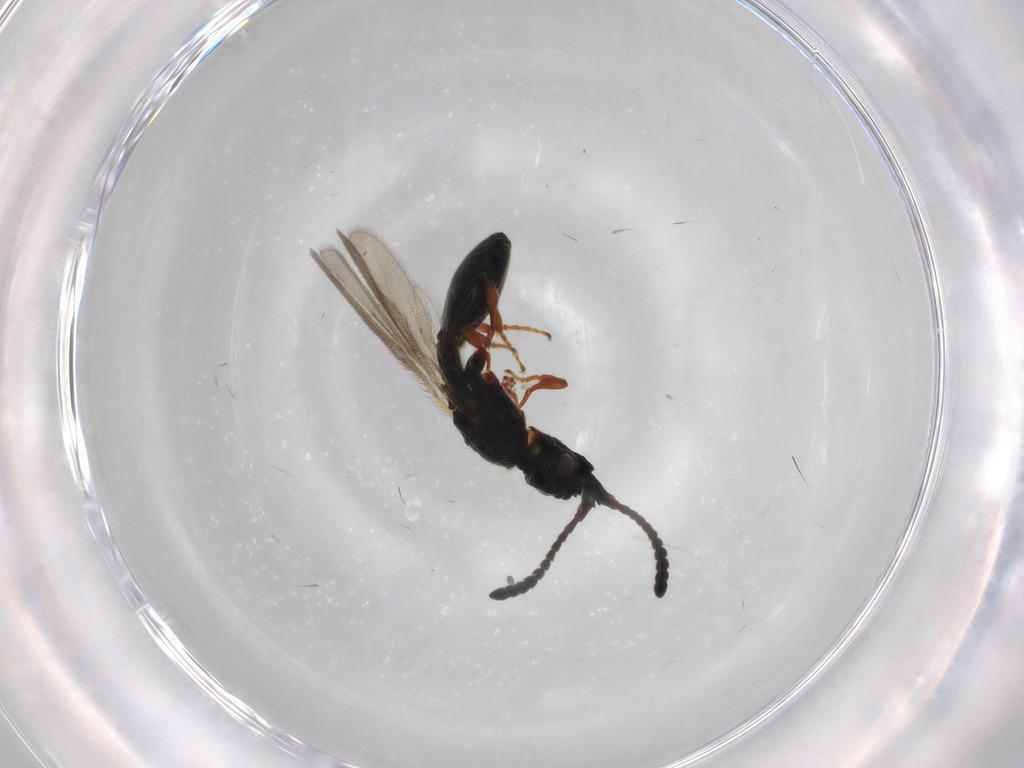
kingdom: Animalia
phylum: Arthropoda
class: Insecta
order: Hymenoptera
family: Diapriidae
